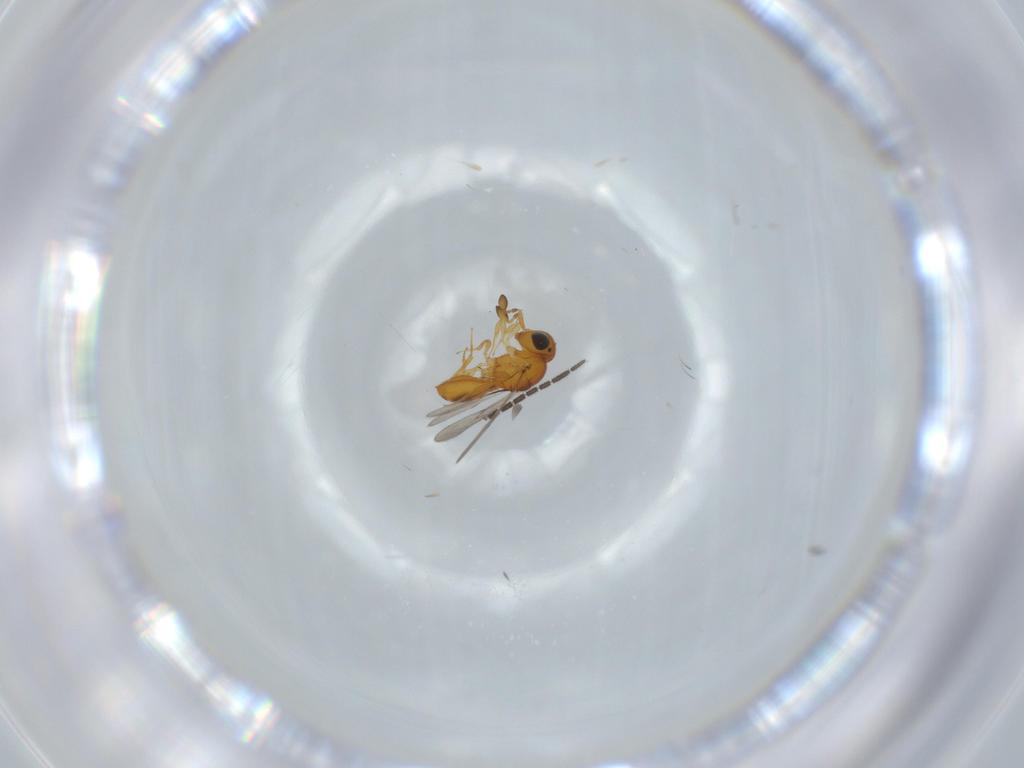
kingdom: Animalia
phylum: Arthropoda
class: Insecta
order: Hymenoptera
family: Scelionidae
